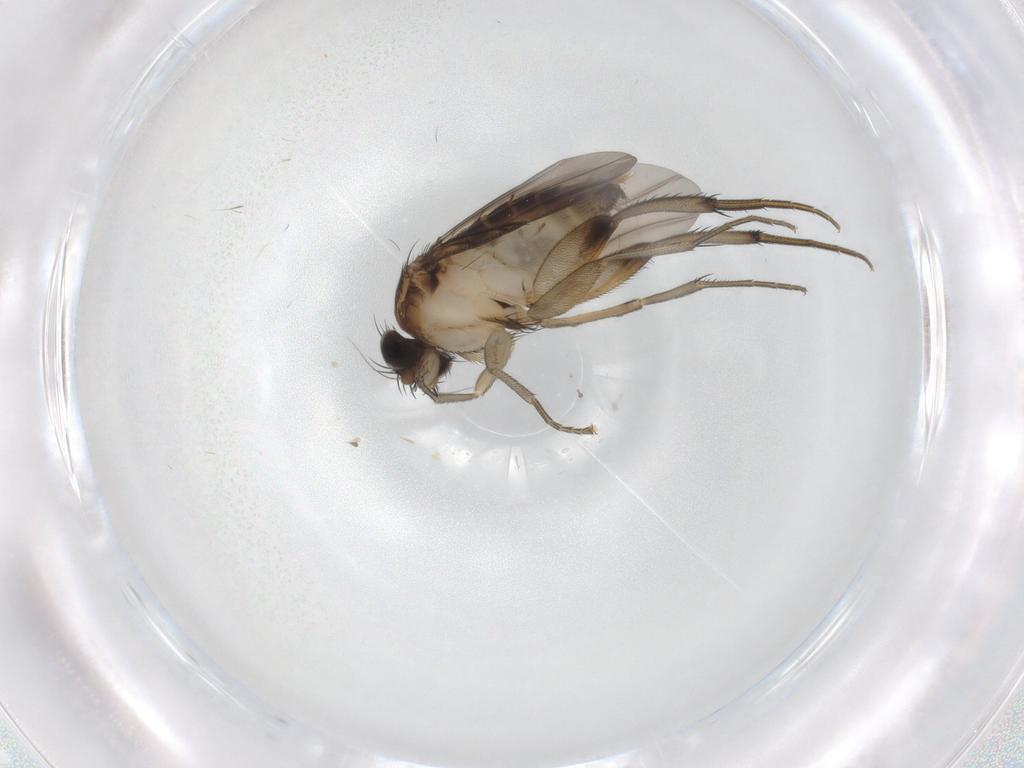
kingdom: Animalia
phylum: Arthropoda
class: Insecta
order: Diptera
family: Phoridae
